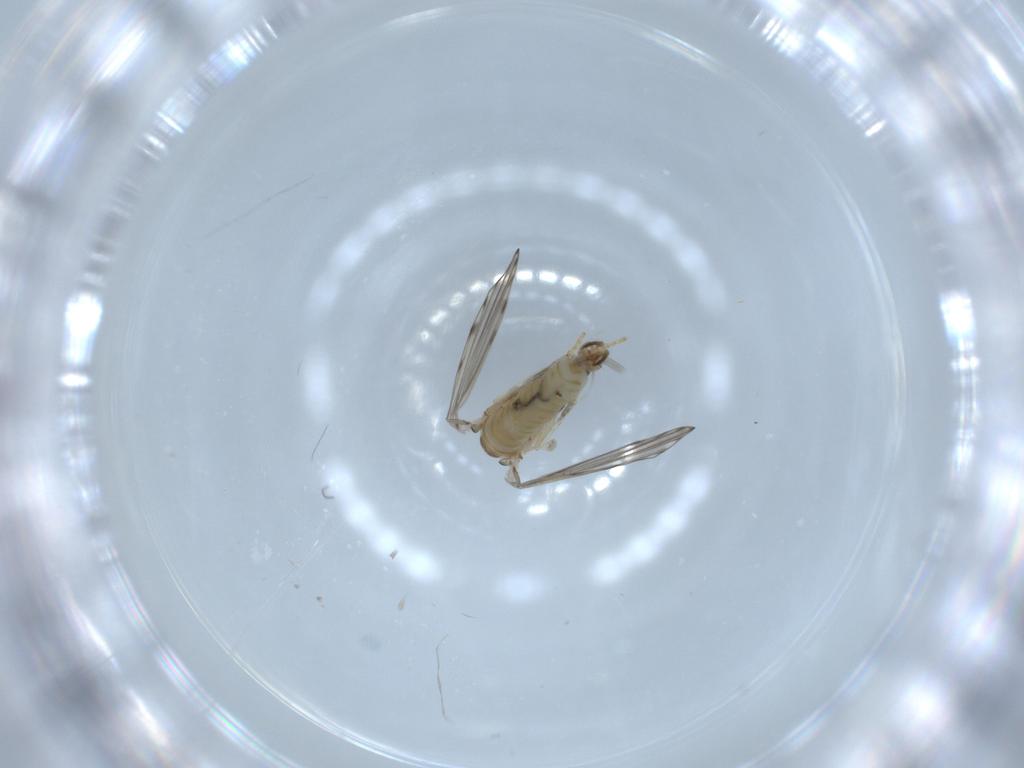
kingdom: Animalia
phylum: Arthropoda
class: Insecta
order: Diptera
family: Psychodidae
